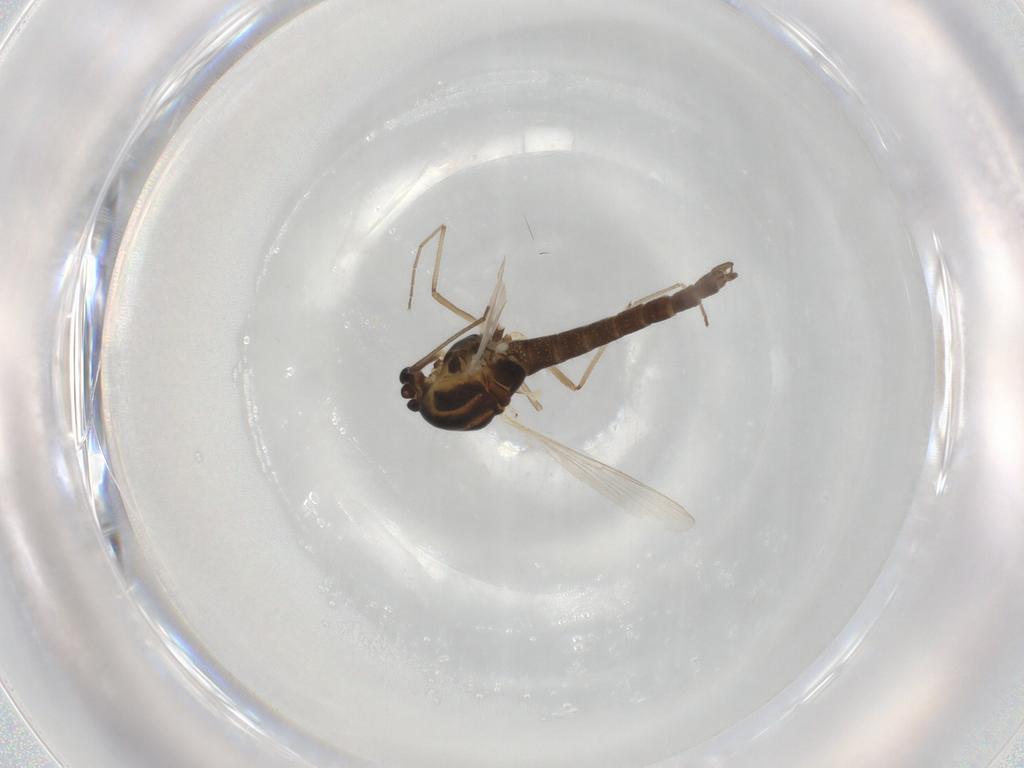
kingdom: Animalia
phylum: Arthropoda
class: Insecta
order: Diptera
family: Chironomidae
